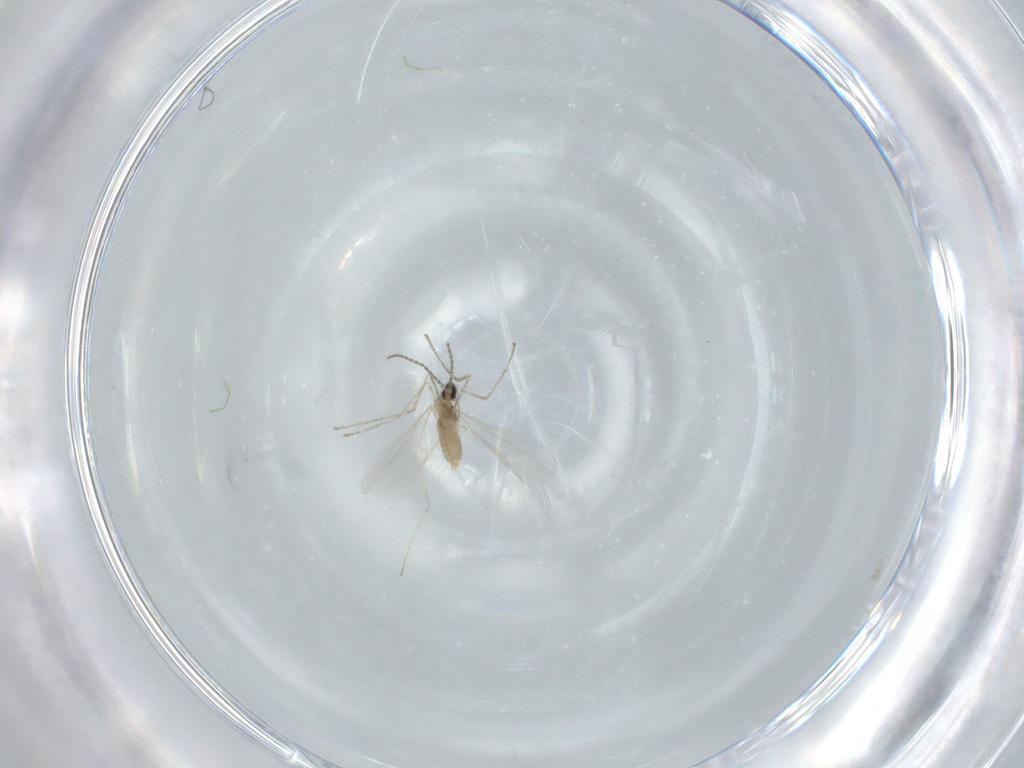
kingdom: Animalia
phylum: Arthropoda
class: Insecta
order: Diptera
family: Cecidomyiidae
